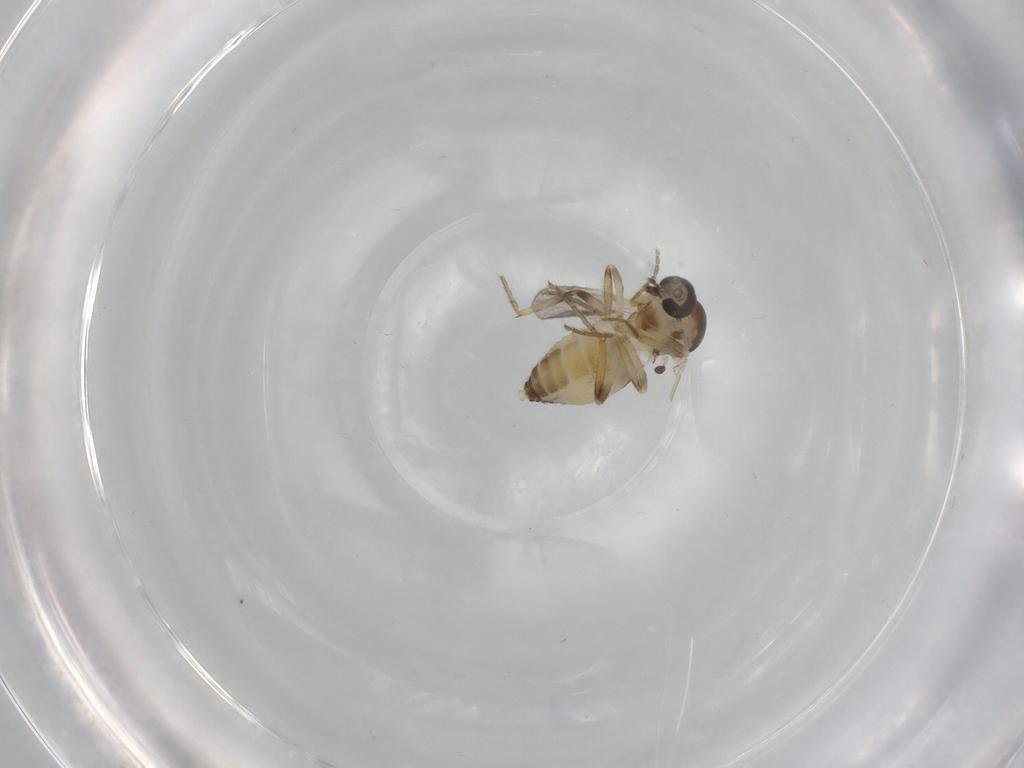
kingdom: Animalia
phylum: Arthropoda
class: Insecta
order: Diptera
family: Ceratopogonidae
